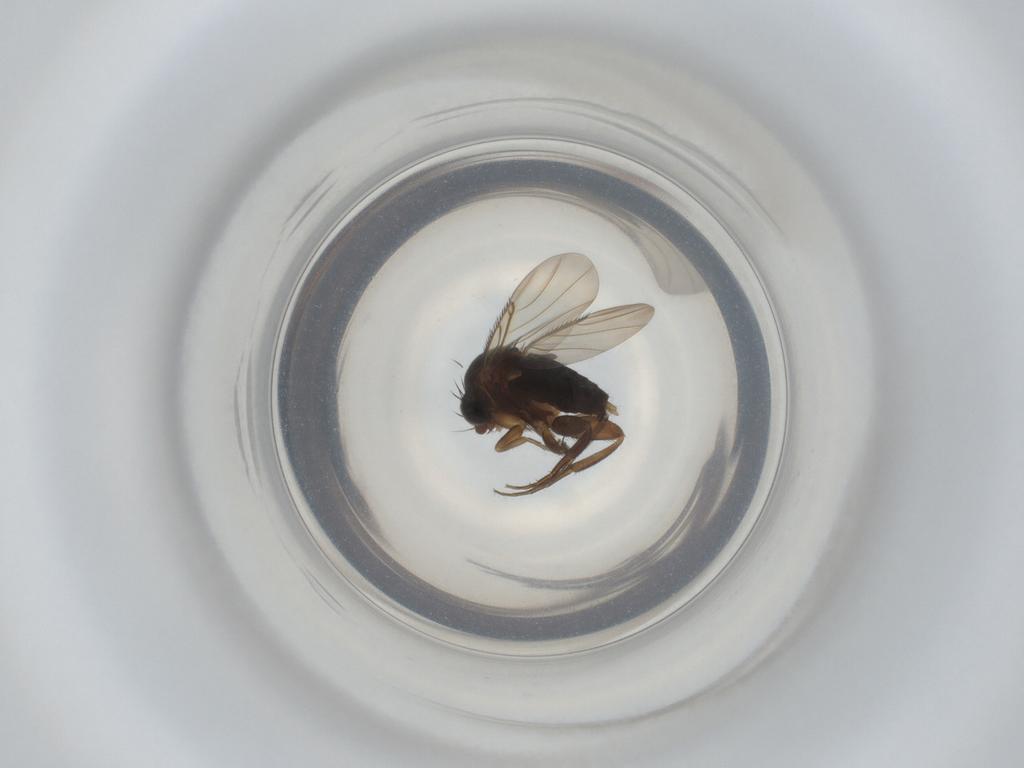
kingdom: Animalia
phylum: Arthropoda
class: Insecta
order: Diptera
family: Phoridae
